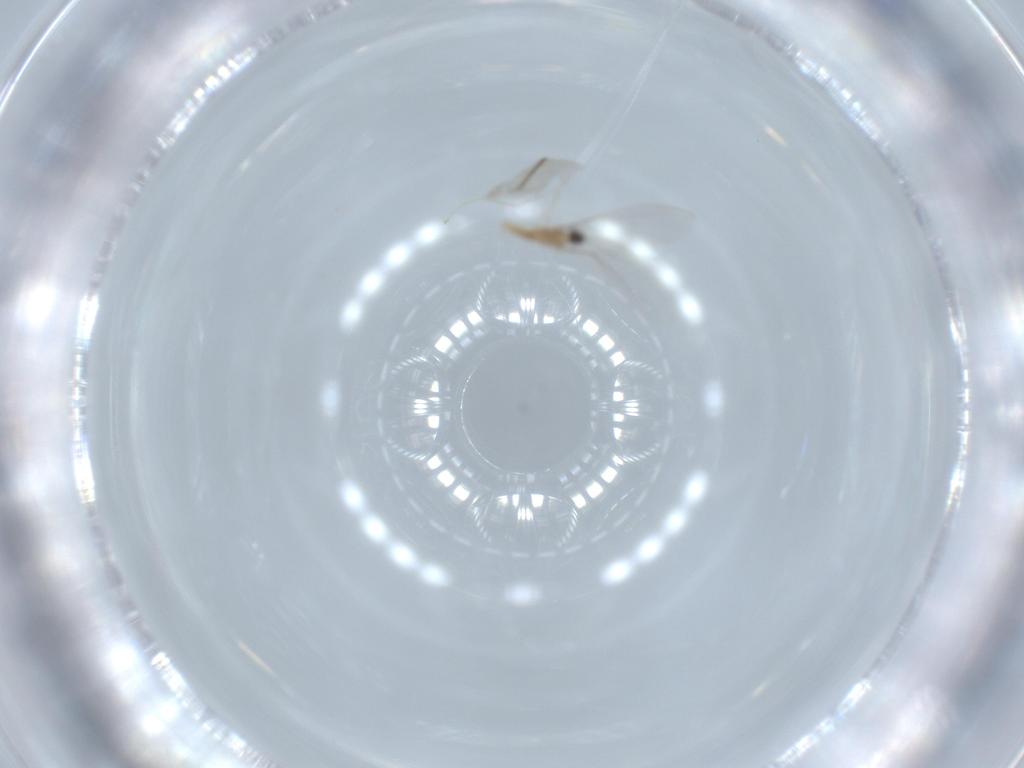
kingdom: Animalia
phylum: Arthropoda
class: Insecta
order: Diptera
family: Cecidomyiidae
